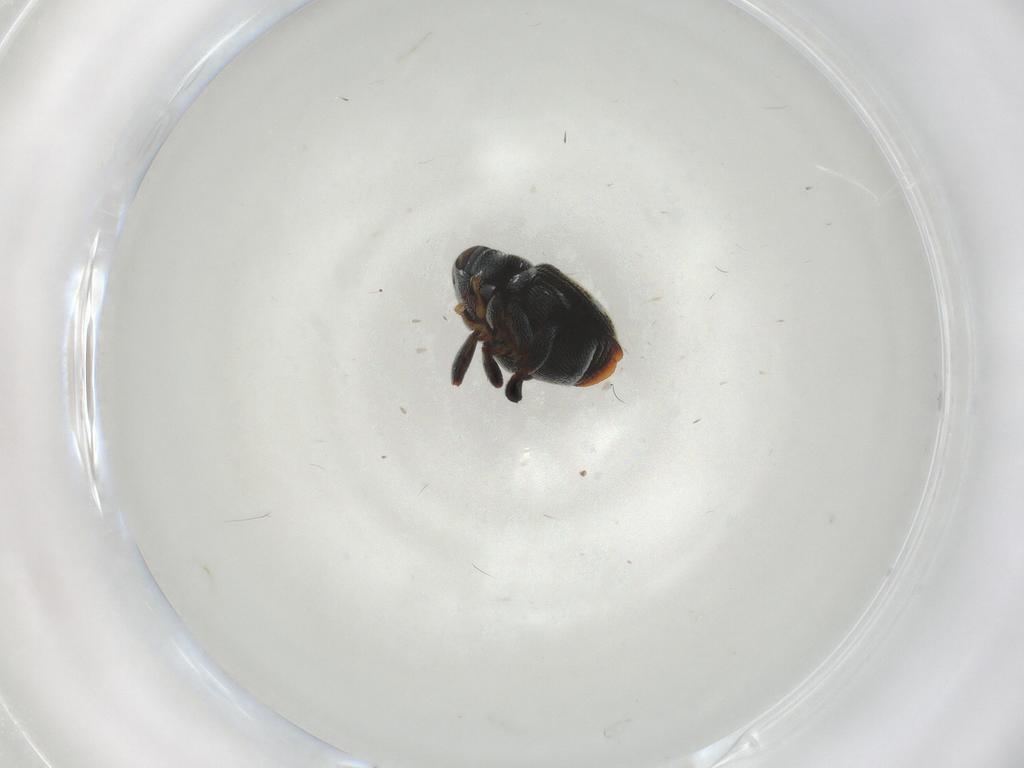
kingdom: Animalia
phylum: Arthropoda
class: Insecta
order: Coleoptera
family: Curculionidae
